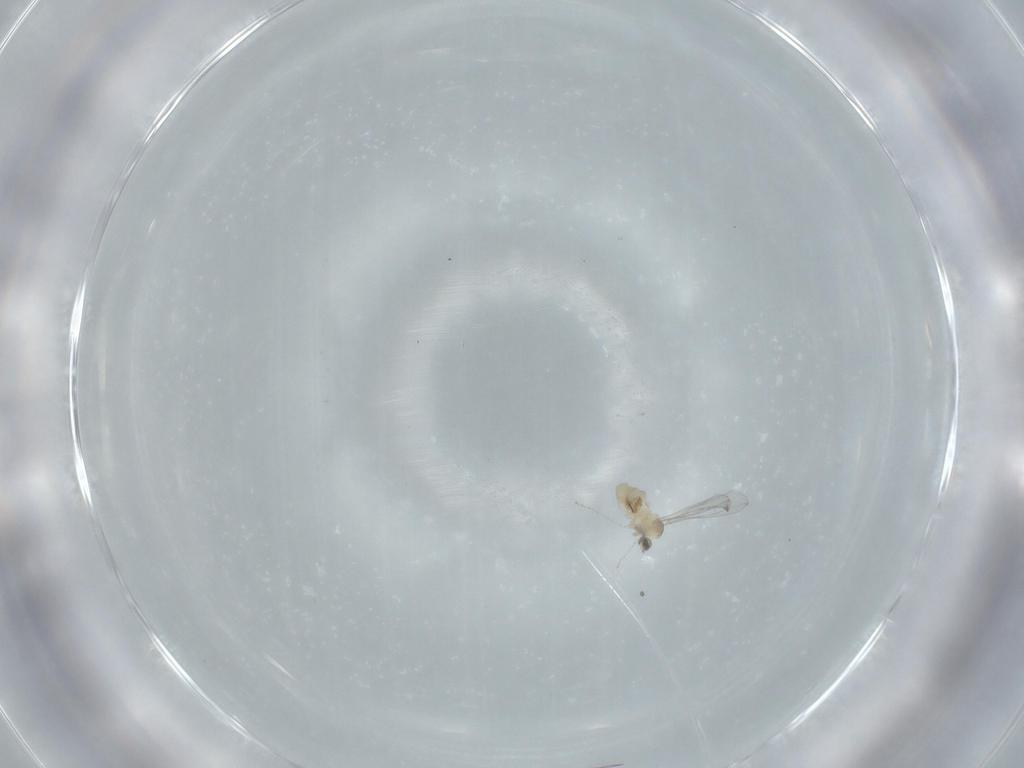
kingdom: Animalia
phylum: Arthropoda
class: Insecta
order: Diptera
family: Cecidomyiidae
